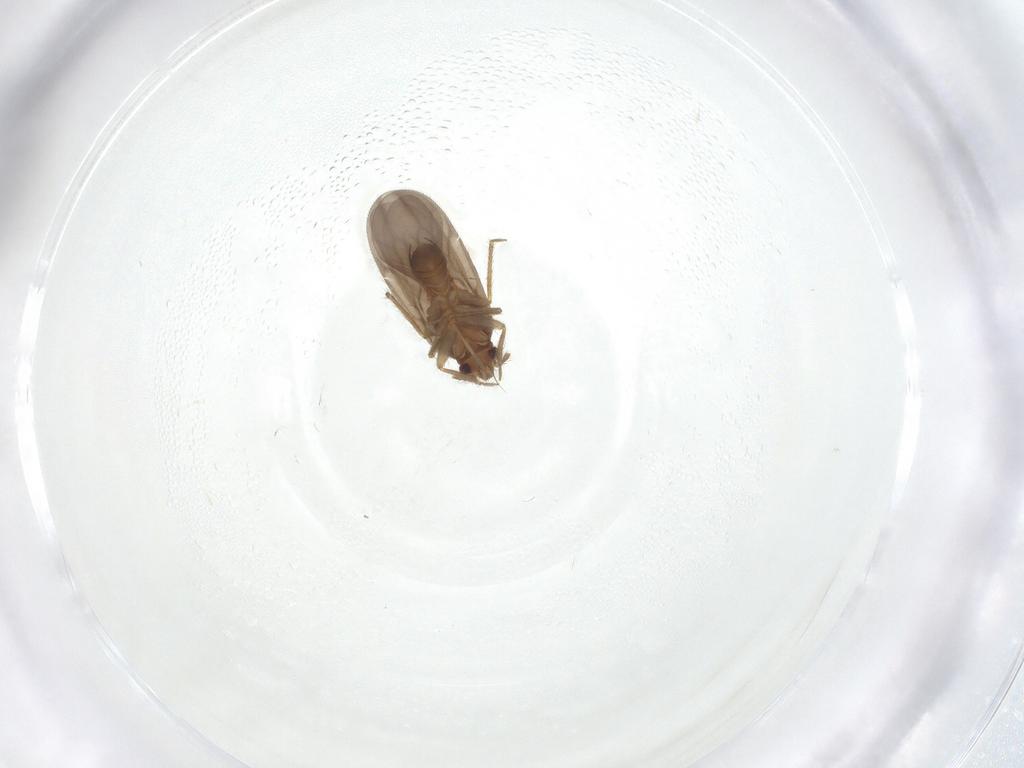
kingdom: Animalia
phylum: Arthropoda
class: Insecta
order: Hemiptera
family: Ceratocombidae
